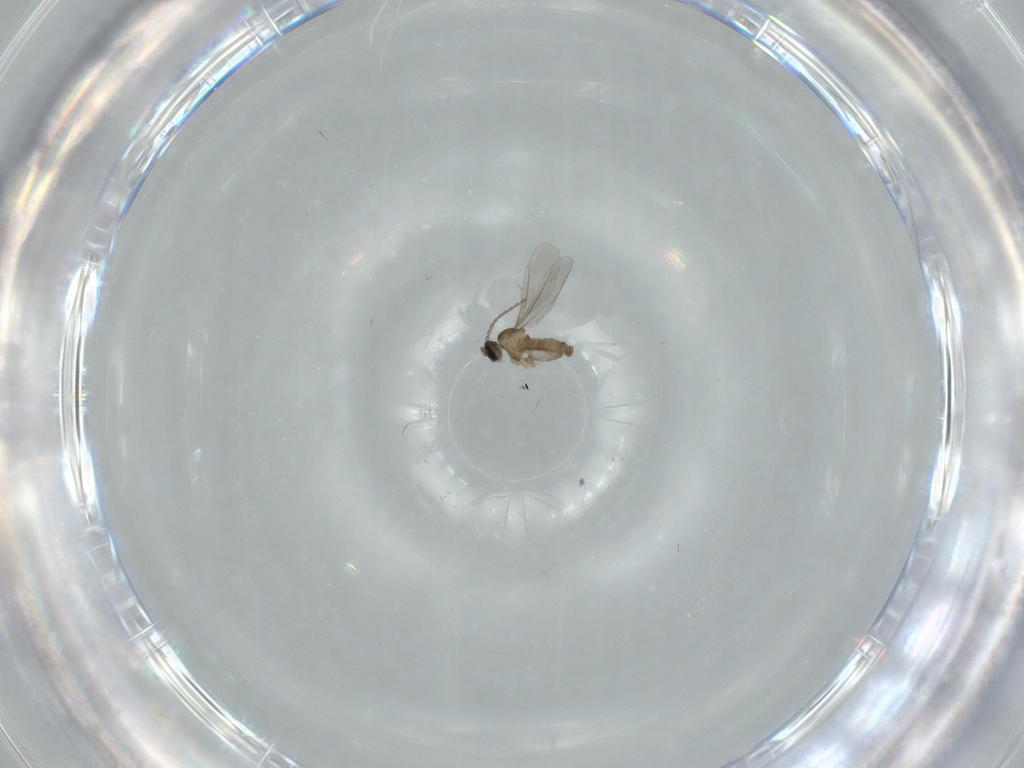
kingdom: Animalia
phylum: Arthropoda
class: Insecta
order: Diptera
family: Cecidomyiidae
